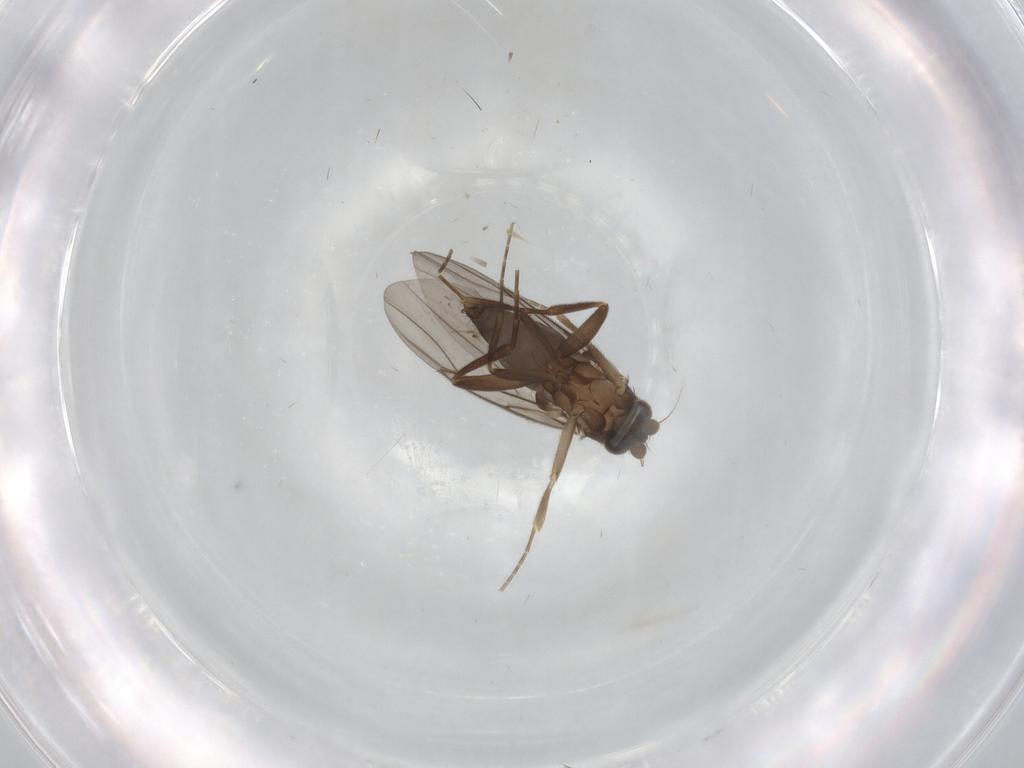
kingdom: Animalia
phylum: Arthropoda
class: Insecta
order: Diptera
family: Cecidomyiidae
